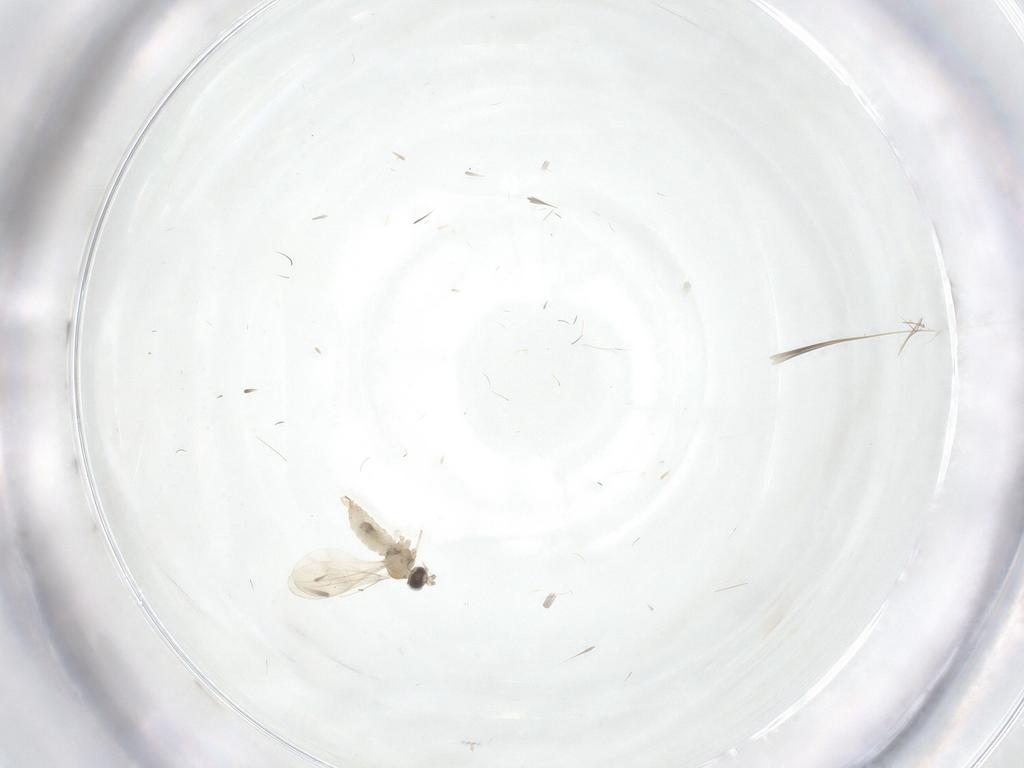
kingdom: Animalia
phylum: Arthropoda
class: Insecta
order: Diptera
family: Cecidomyiidae
